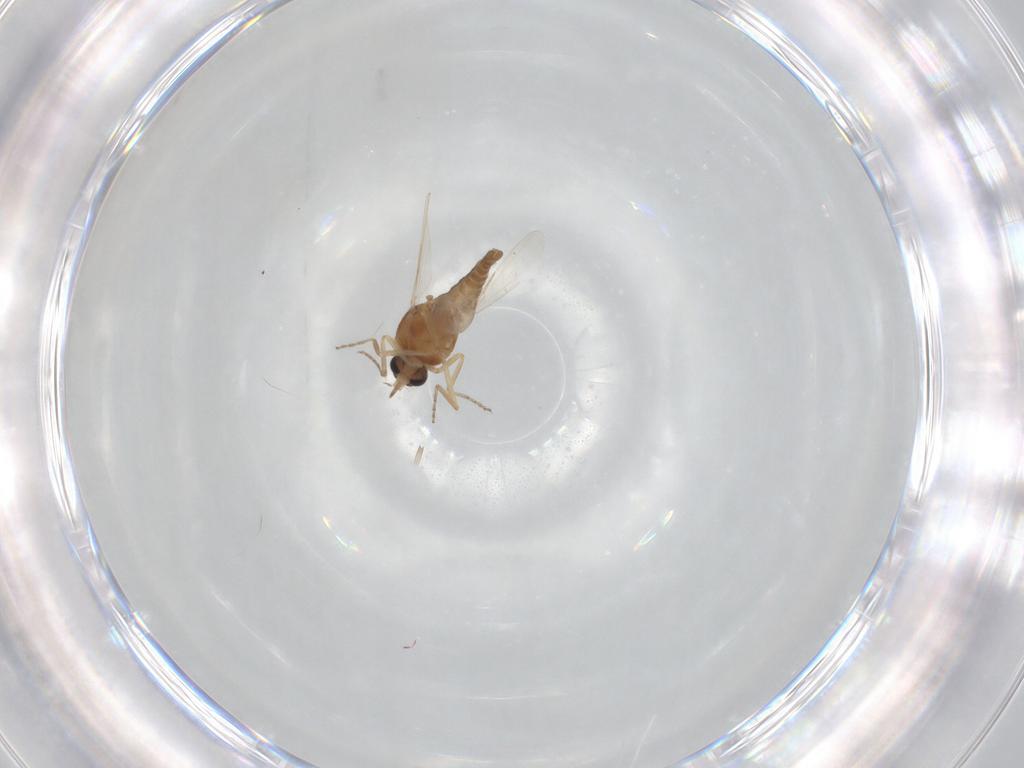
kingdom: Animalia
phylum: Arthropoda
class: Insecta
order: Diptera
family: Ceratopogonidae
